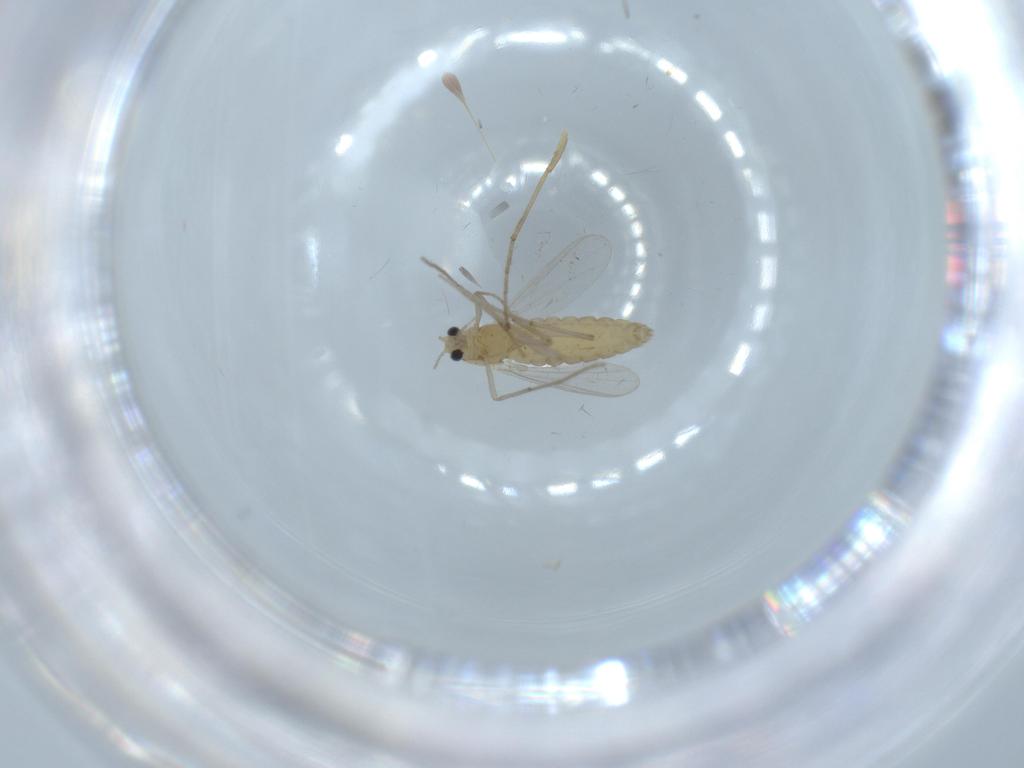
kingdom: Animalia
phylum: Arthropoda
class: Insecta
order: Diptera
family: Chironomidae
